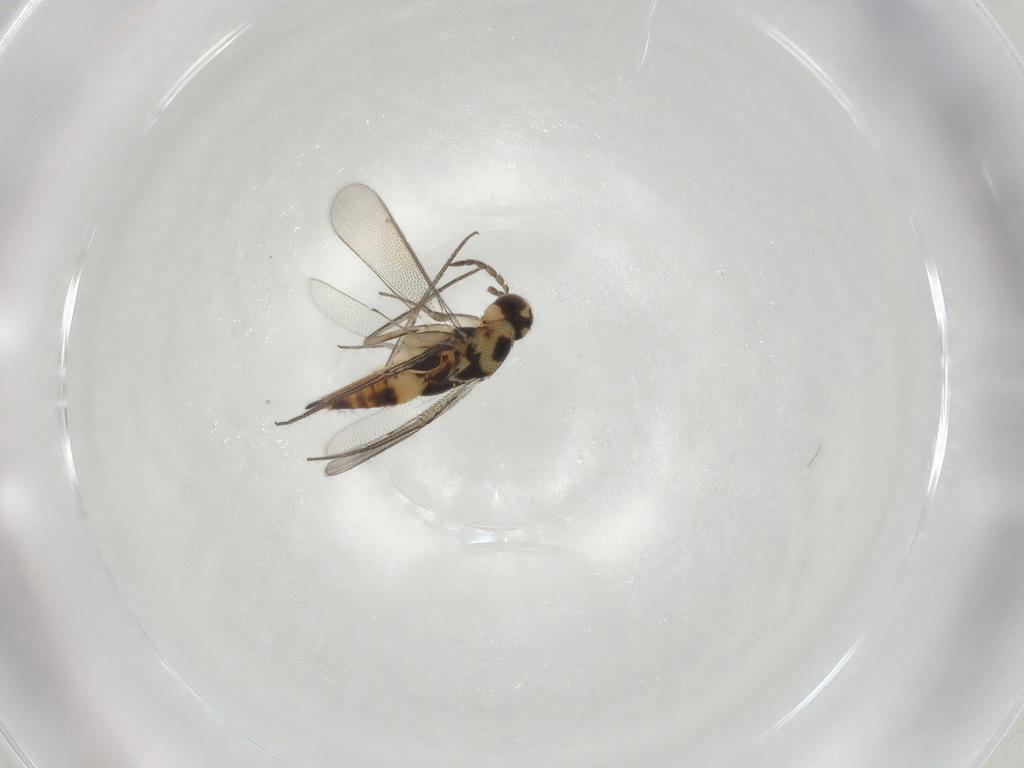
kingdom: Animalia
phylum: Arthropoda
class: Insecta
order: Hymenoptera
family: Eulophidae
